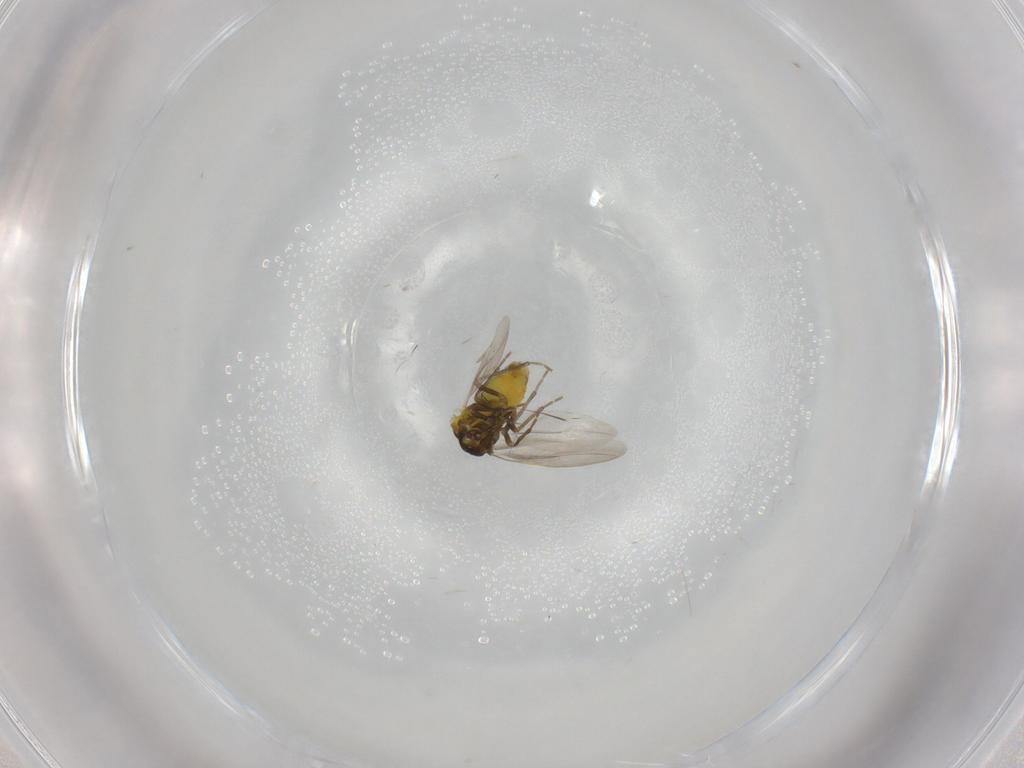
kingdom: Animalia
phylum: Arthropoda
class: Insecta
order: Hemiptera
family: Aleyrodidae
